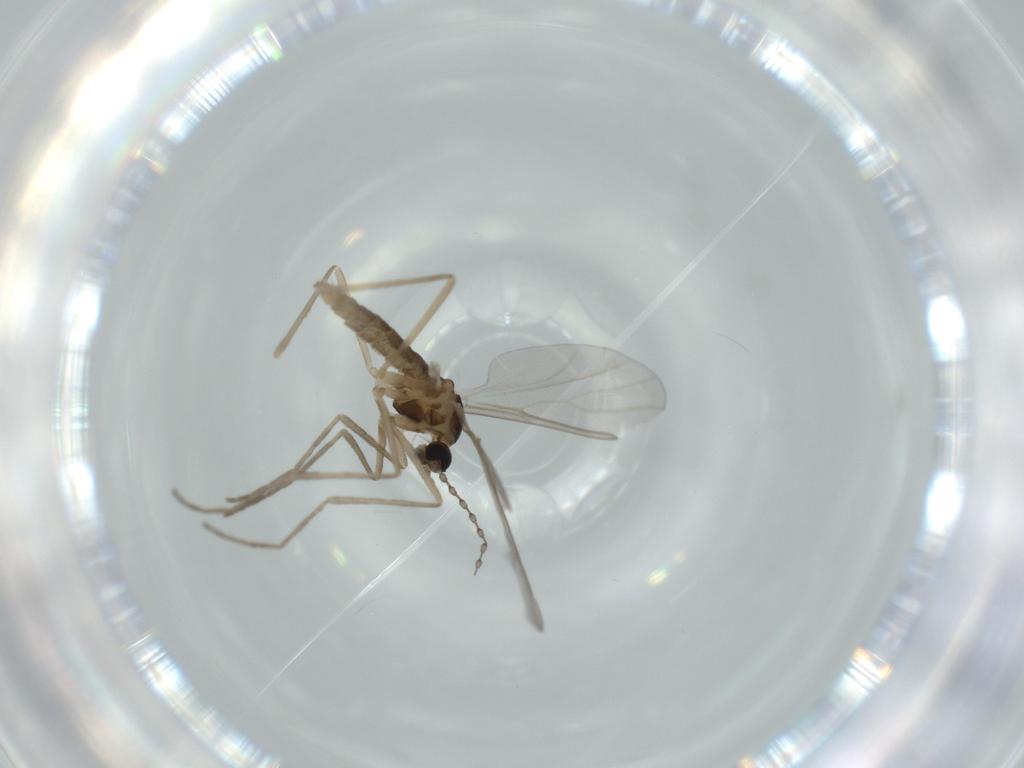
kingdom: Animalia
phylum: Arthropoda
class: Insecta
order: Diptera
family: Cecidomyiidae
